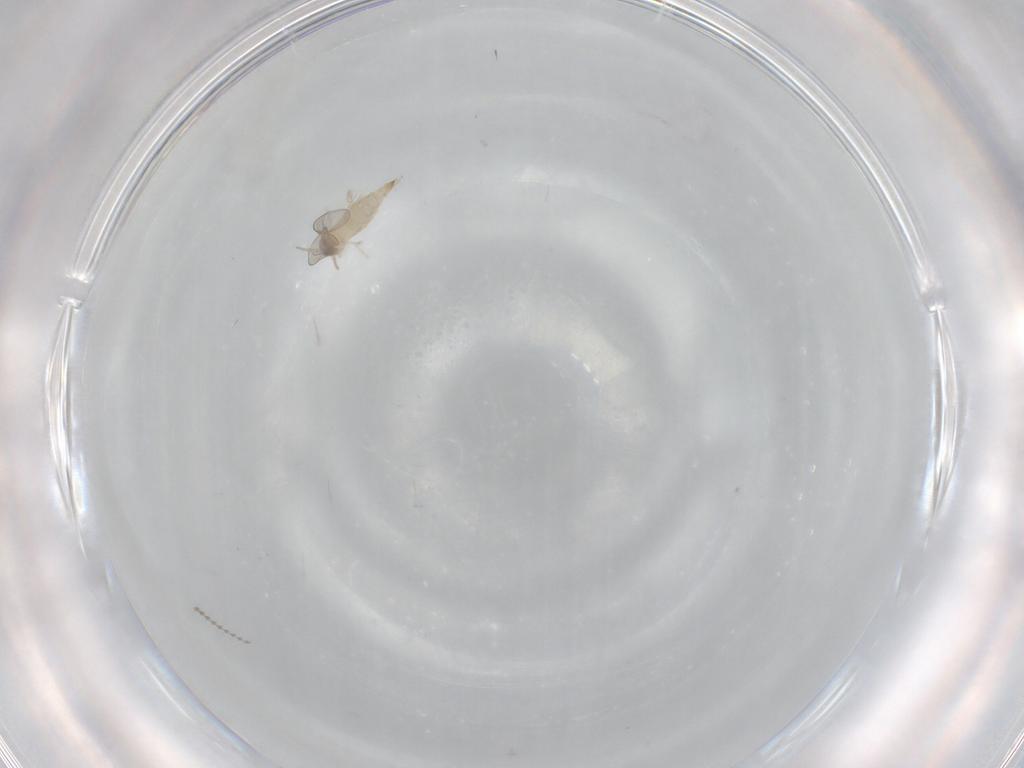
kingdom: Animalia
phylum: Arthropoda
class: Insecta
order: Diptera
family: Cecidomyiidae
